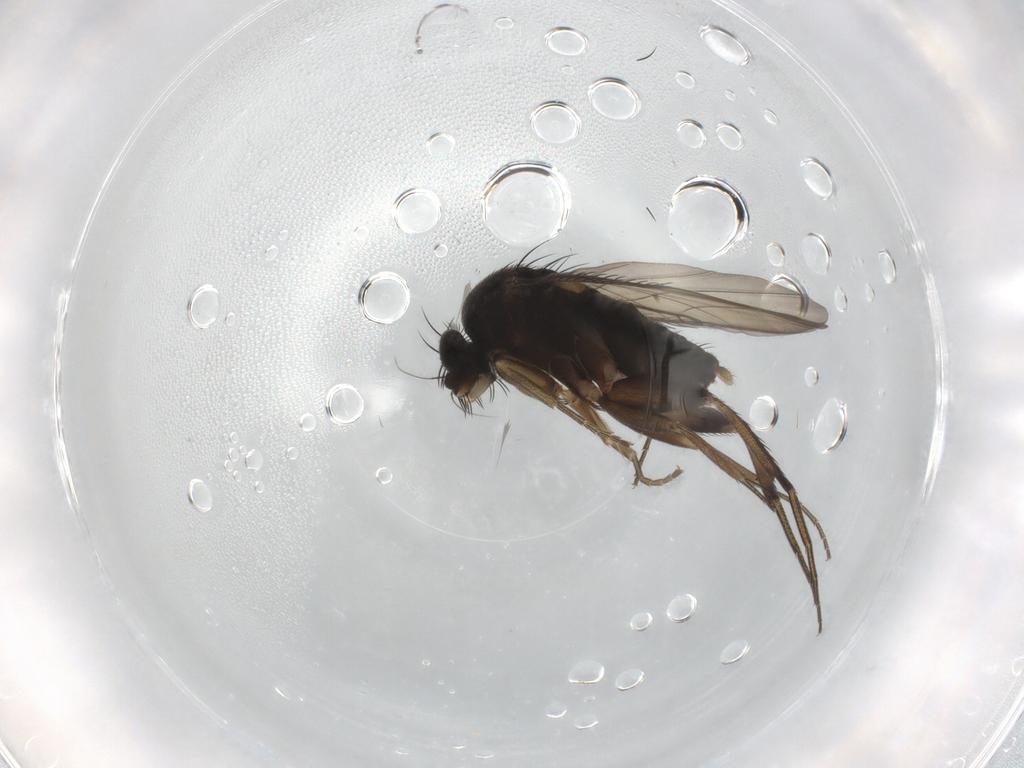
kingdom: Animalia
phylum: Arthropoda
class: Insecta
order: Diptera
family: Phoridae
